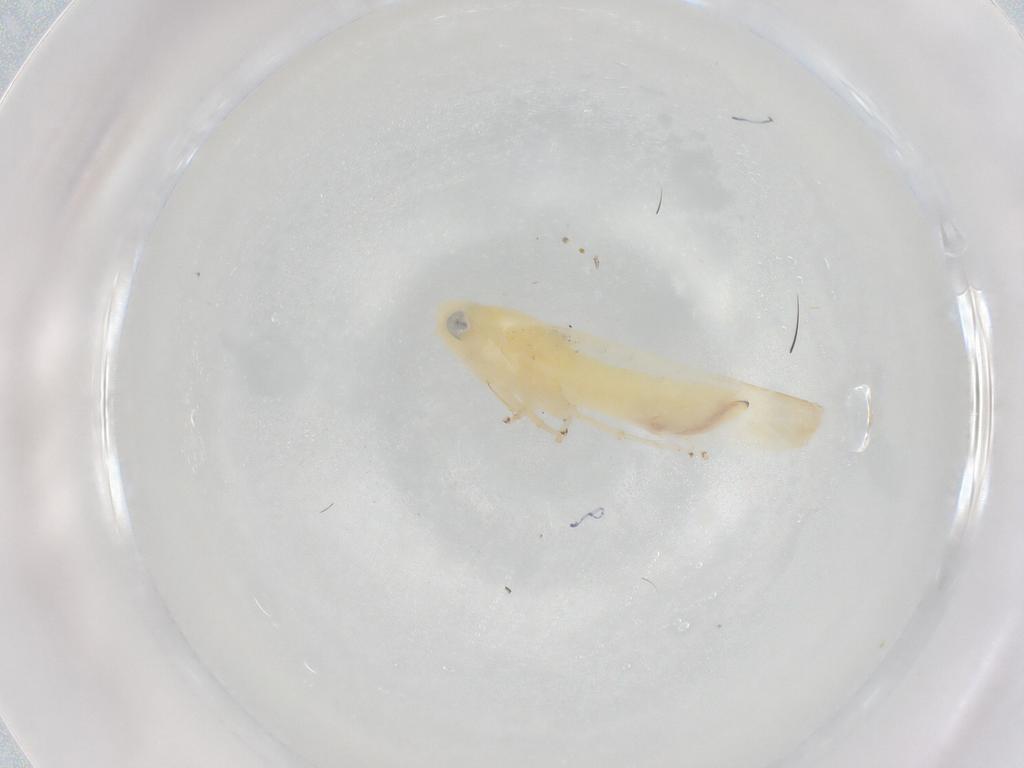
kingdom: Animalia
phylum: Arthropoda
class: Insecta
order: Hemiptera
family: Cicadellidae
